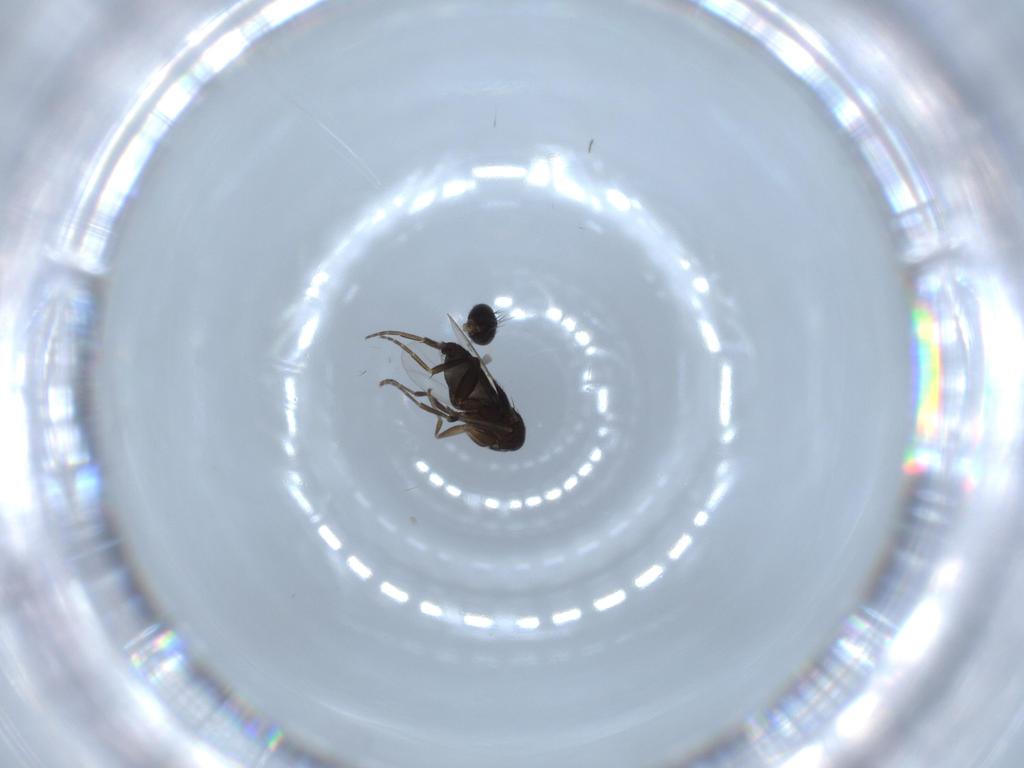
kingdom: Animalia
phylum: Arthropoda
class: Insecta
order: Diptera
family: Phoridae
